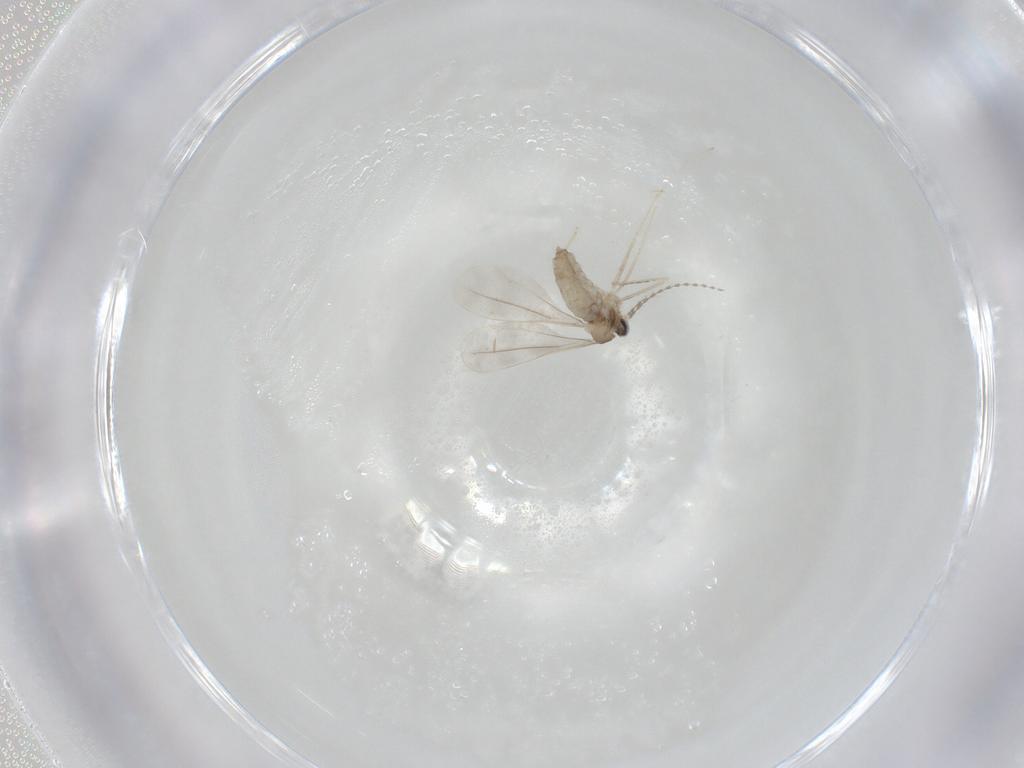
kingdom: Animalia
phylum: Arthropoda
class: Insecta
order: Diptera
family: Cecidomyiidae
